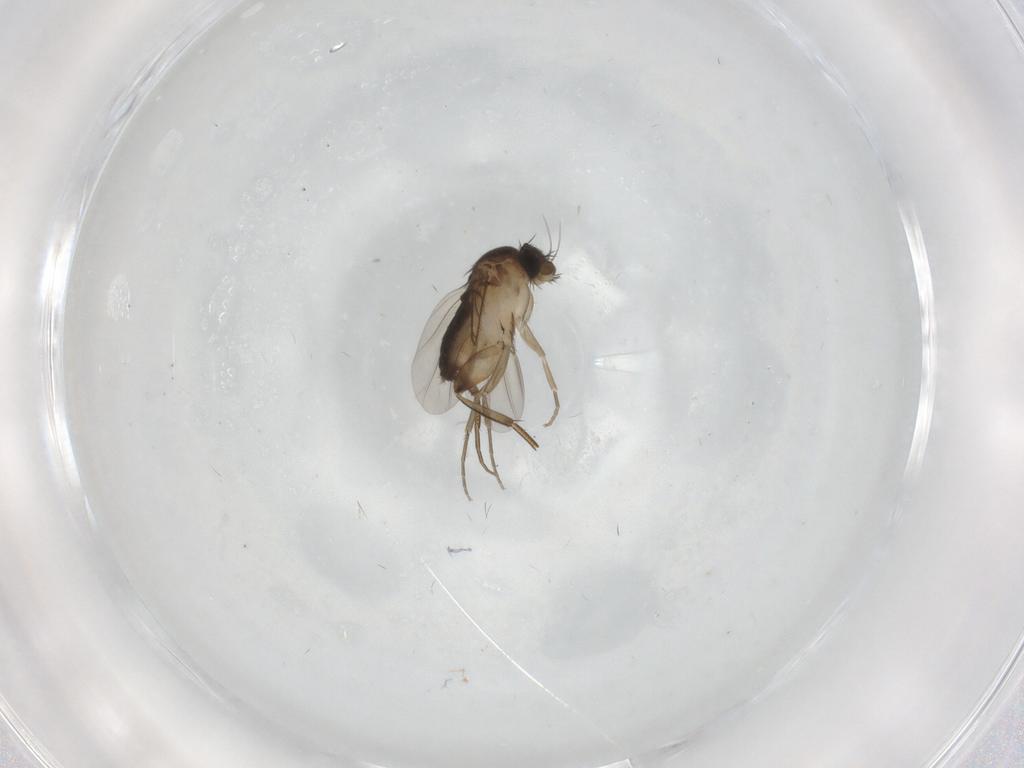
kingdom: Animalia
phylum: Arthropoda
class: Insecta
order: Diptera
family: Phoridae
